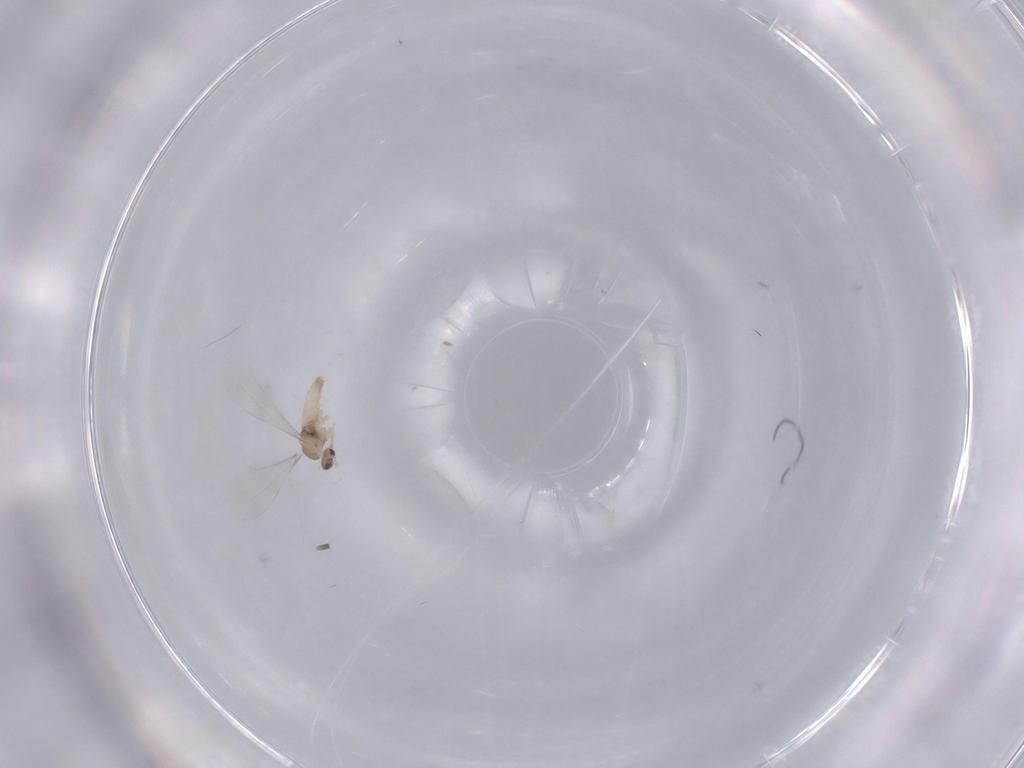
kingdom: Animalia
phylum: Arthropoda
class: Insecta
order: Diptera
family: Cecidomyiidae
